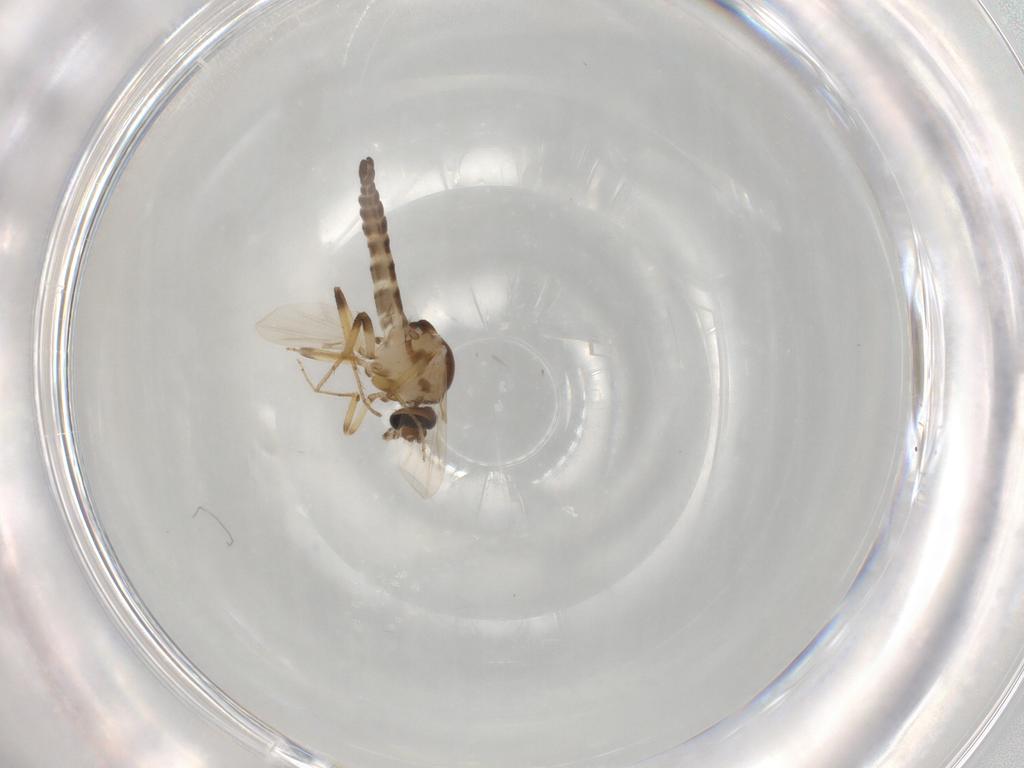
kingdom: Animalia
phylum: Arthropoda
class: Insecta
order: Diptera
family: Ceratopogonidae
